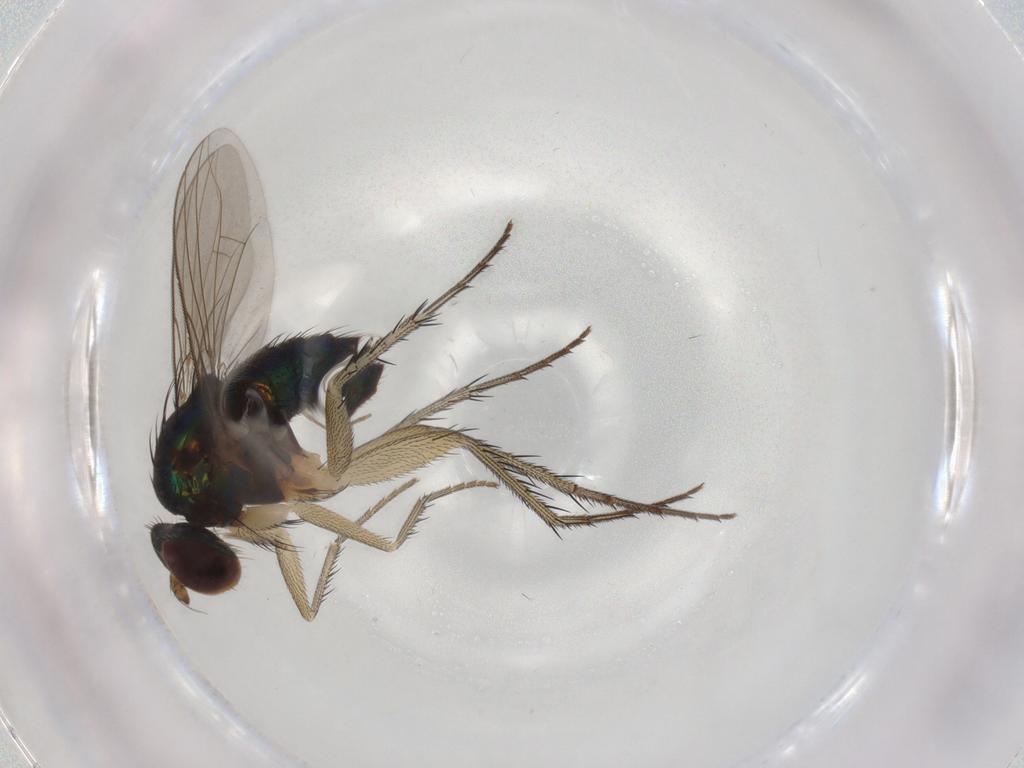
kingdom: Animalia
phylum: Arthropoda
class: Insecta
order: Diptera
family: Dolichopodidae
